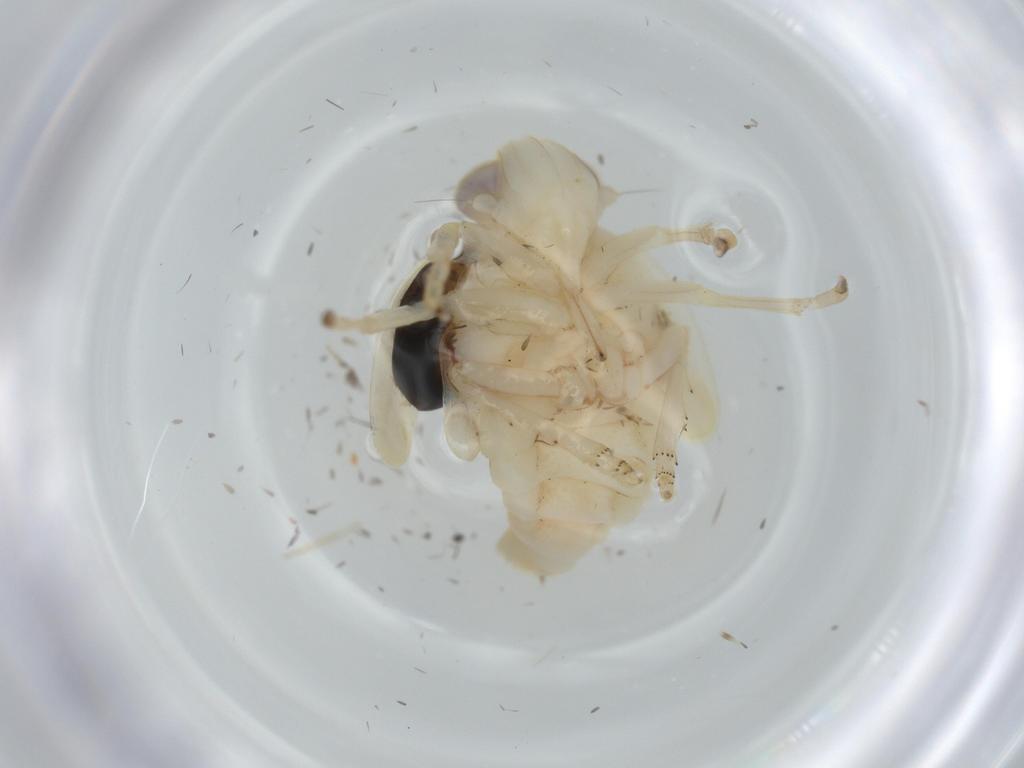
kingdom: Animalia
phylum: Arthropoda
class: Insecta
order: Hemiptera
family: Nogodinidae
